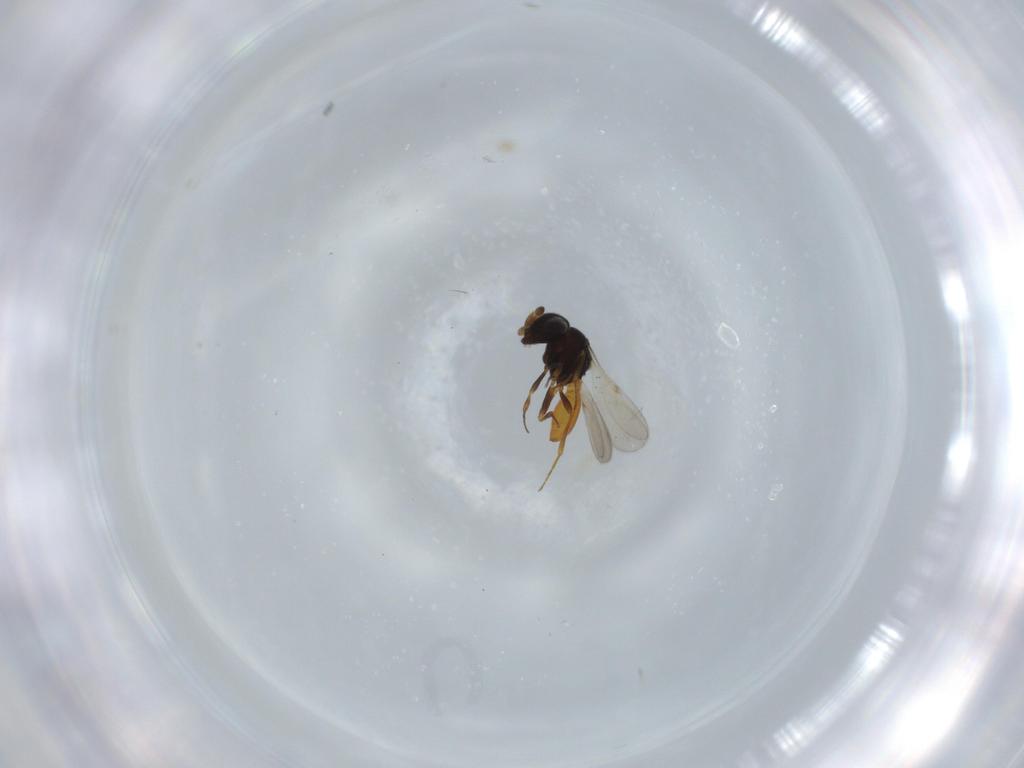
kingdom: Animalia
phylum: Arthropoda
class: Insecta
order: Hymenoptera
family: Scelionidae
